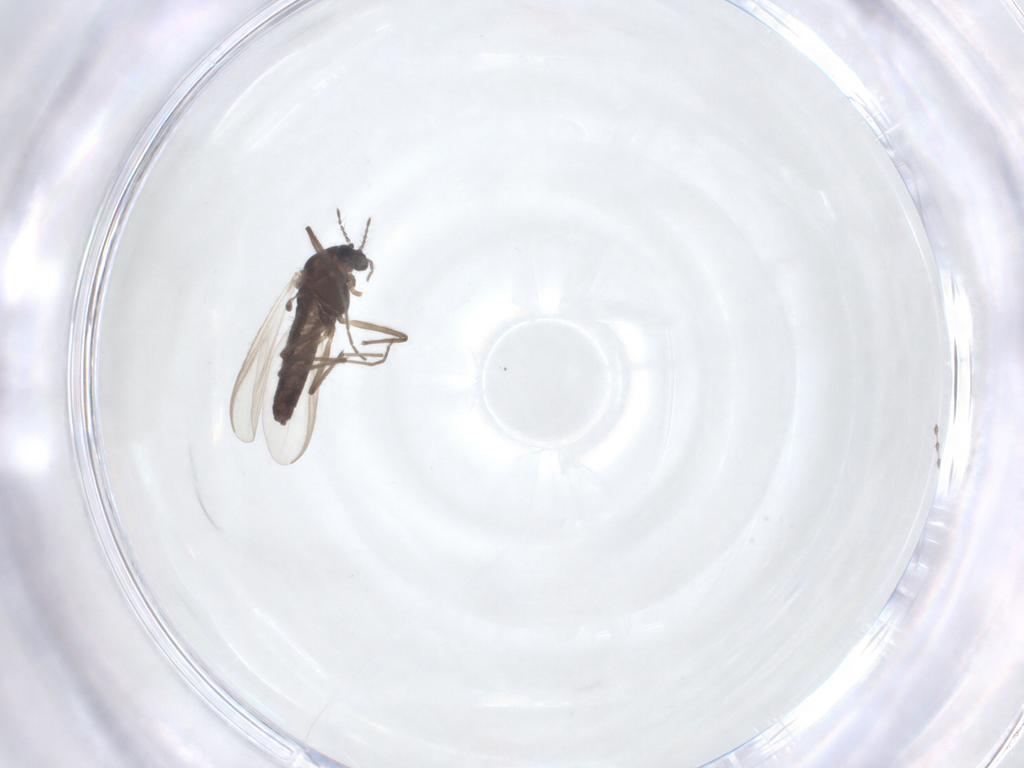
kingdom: Animalia
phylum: Arthropoda
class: Insecta
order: Diptera
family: Cecidomyiidae
